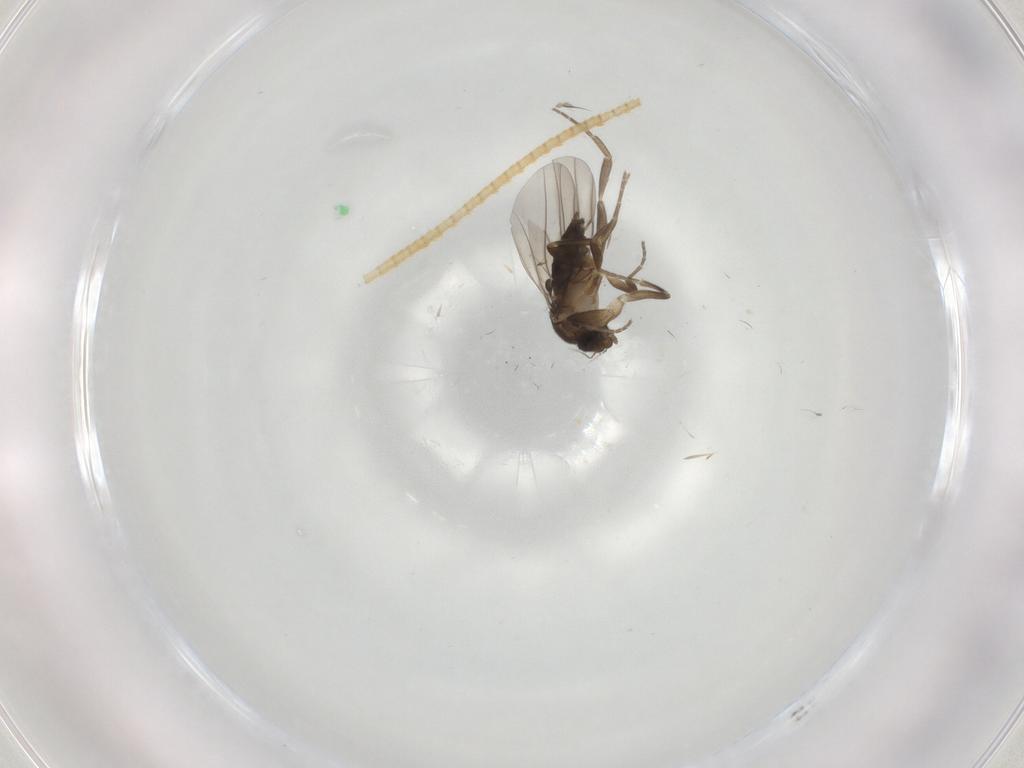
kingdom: Animalia
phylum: Arthropoda
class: Insecta
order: Diptera
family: Phoridae
